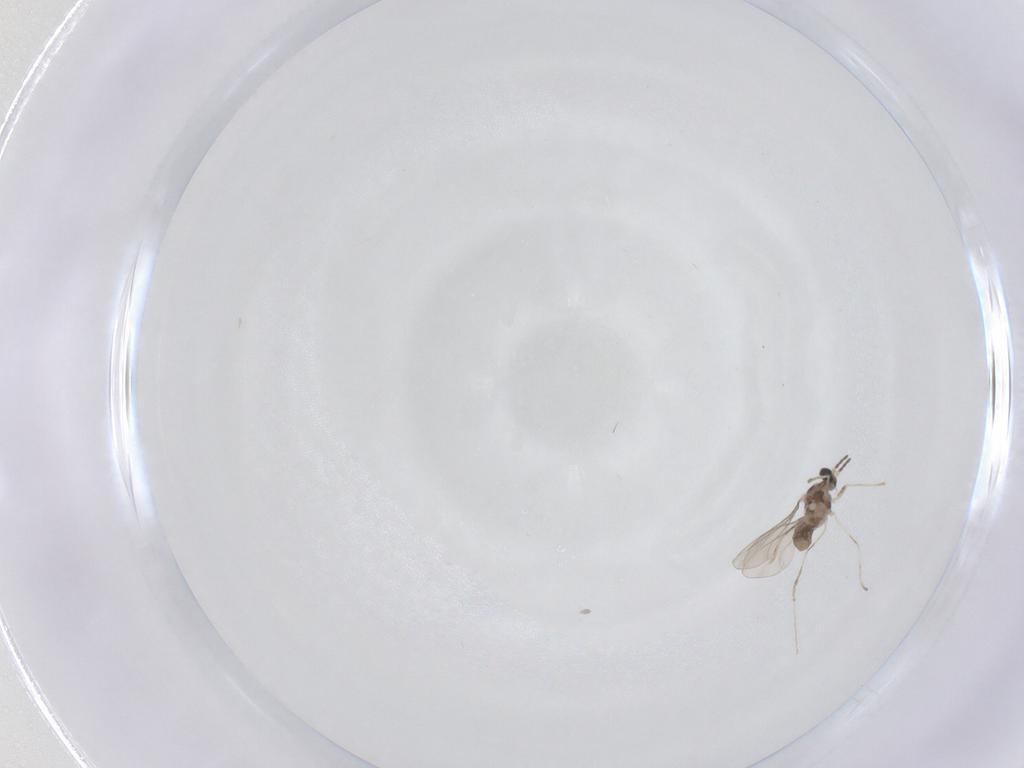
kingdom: Animalia
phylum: Arthropoda
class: Insecta
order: Diptera
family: Cecidomyiidae
